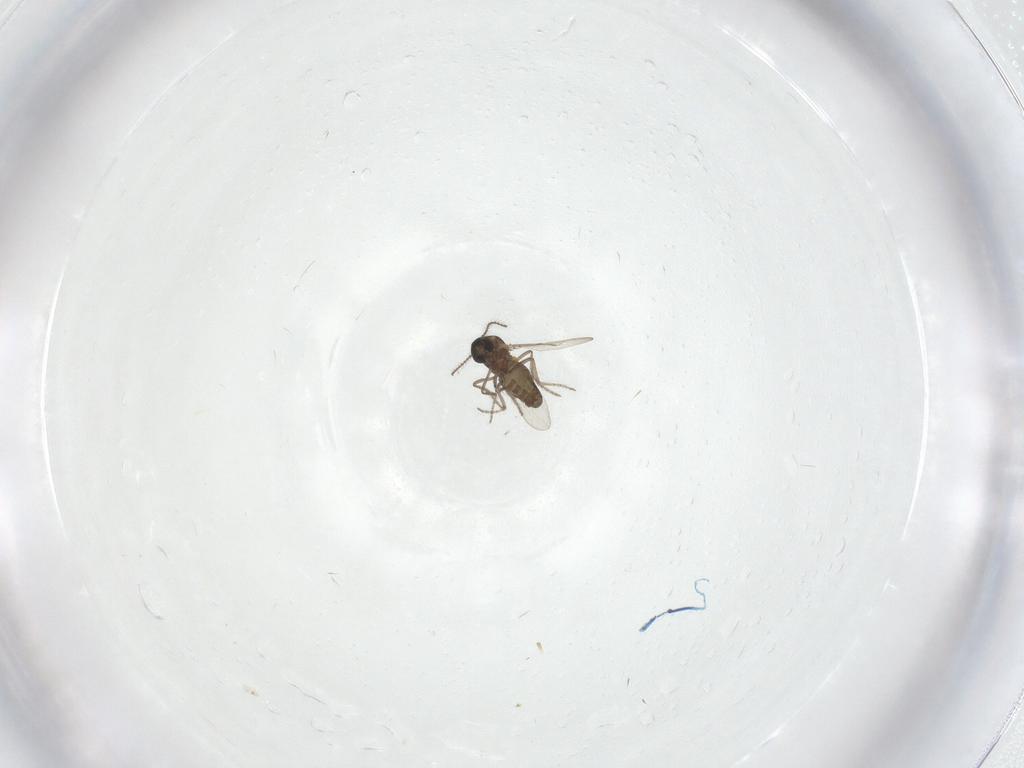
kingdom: Animalia
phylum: Arthropoda
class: Insecta
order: Diptera
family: Ceratopogonidae
